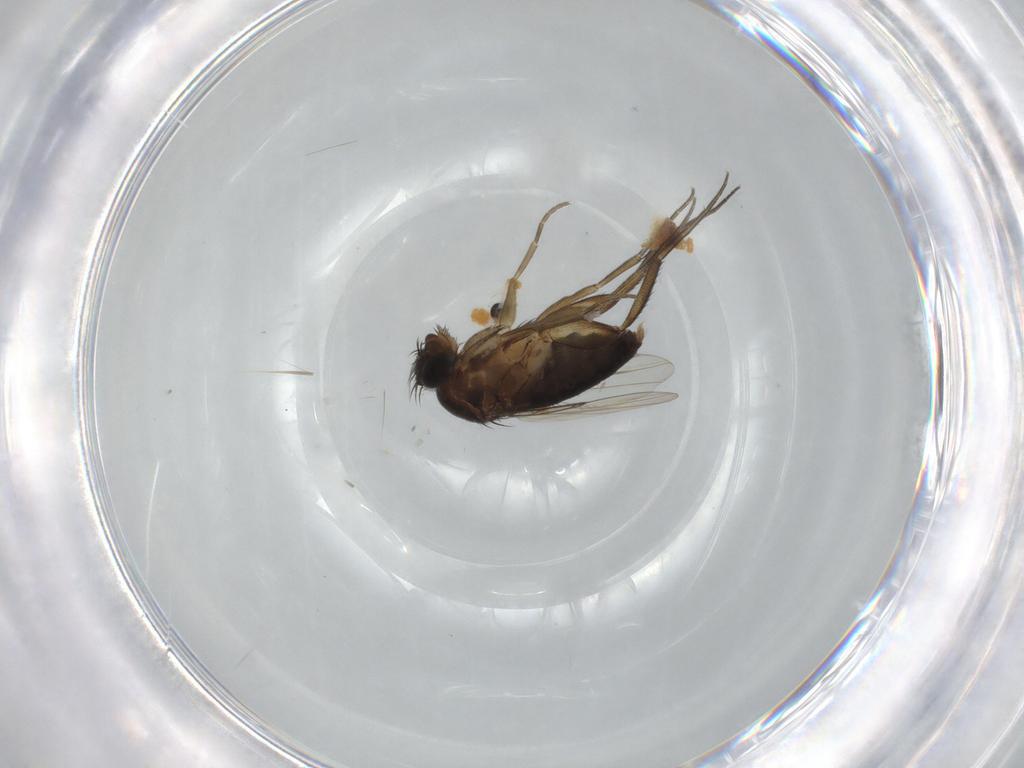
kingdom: Animalia
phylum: Arthropoda
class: Insecta
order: Diptera
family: Phoridae
